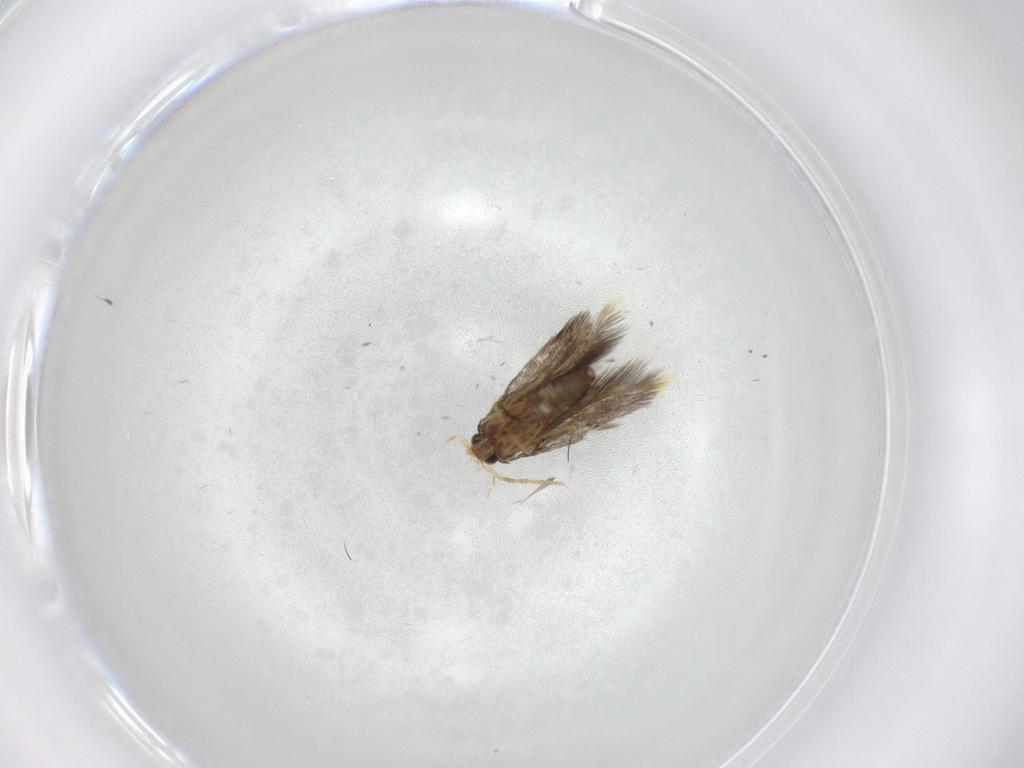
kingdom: Animalia
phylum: Arthropoda
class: Insecta
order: Lepidoptera
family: Copromorphidae
